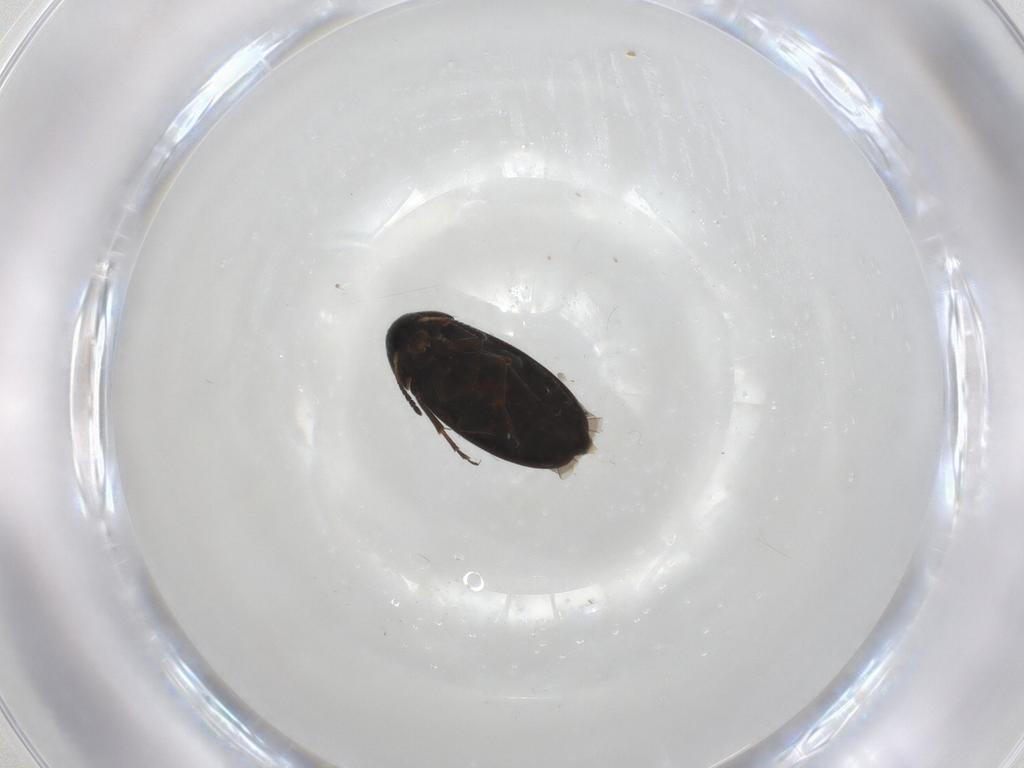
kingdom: Animalia
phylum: Arthropoda
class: Insecta
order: Coleoptera
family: Scraptiidae
